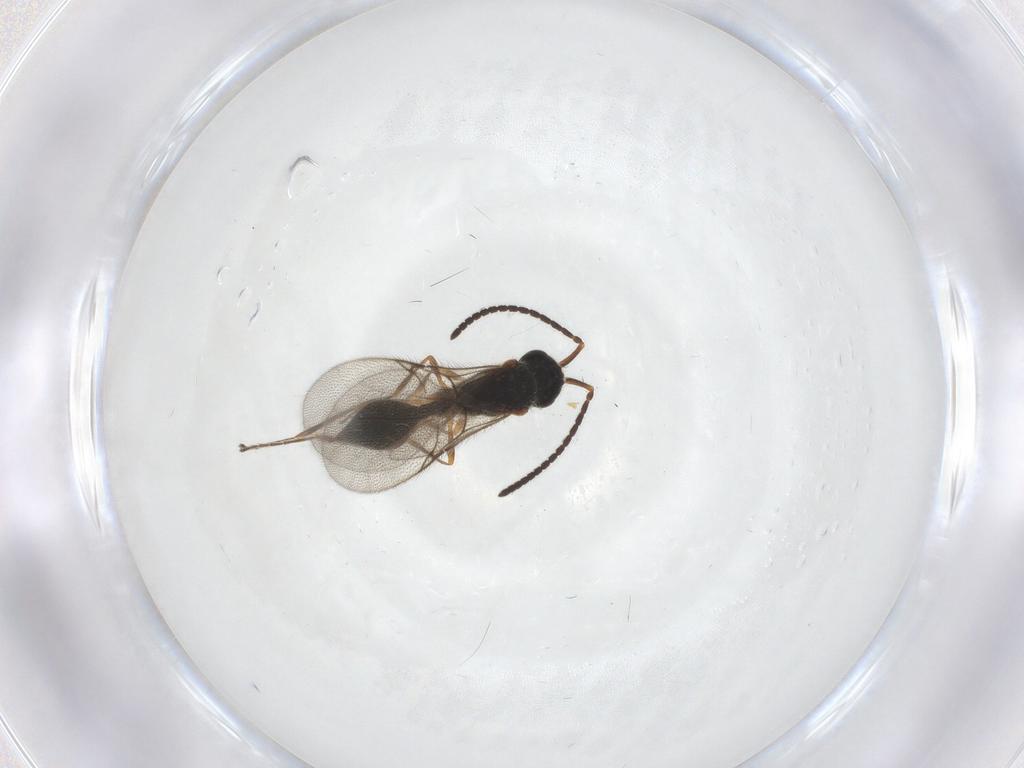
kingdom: Animalia
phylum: Arthropoda
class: Insecta
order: Hymenoptera
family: Diapriidae
